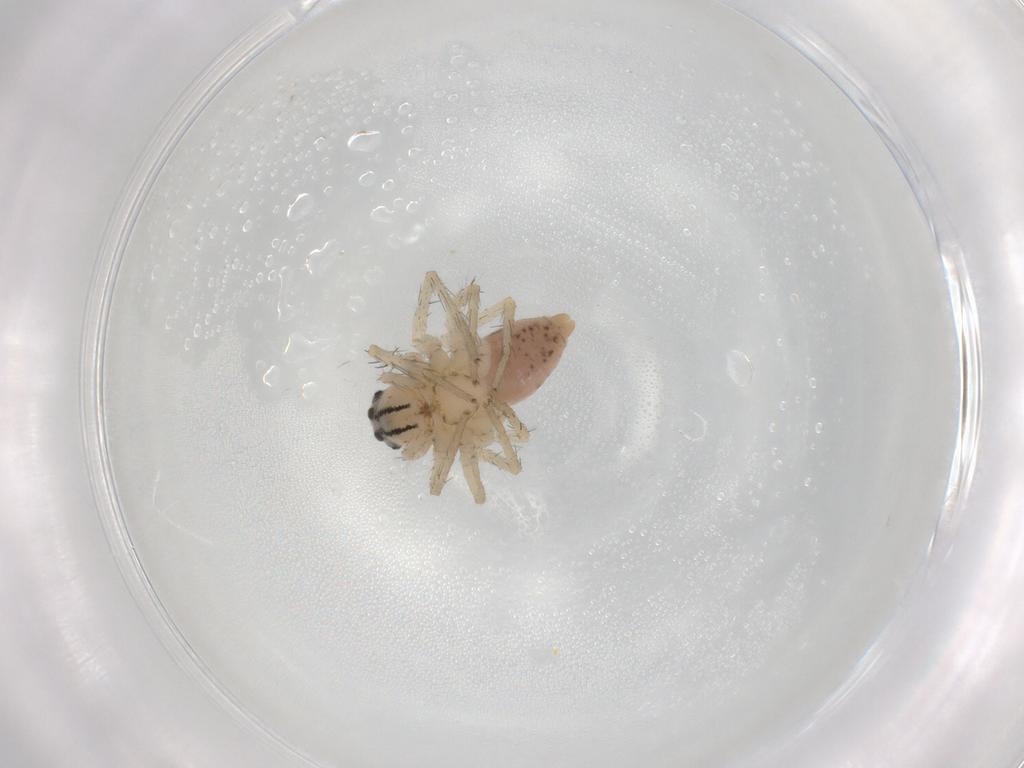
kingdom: Animalia
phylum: Arthropoda
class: Arachnida
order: Araneae
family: Oxyopidae
